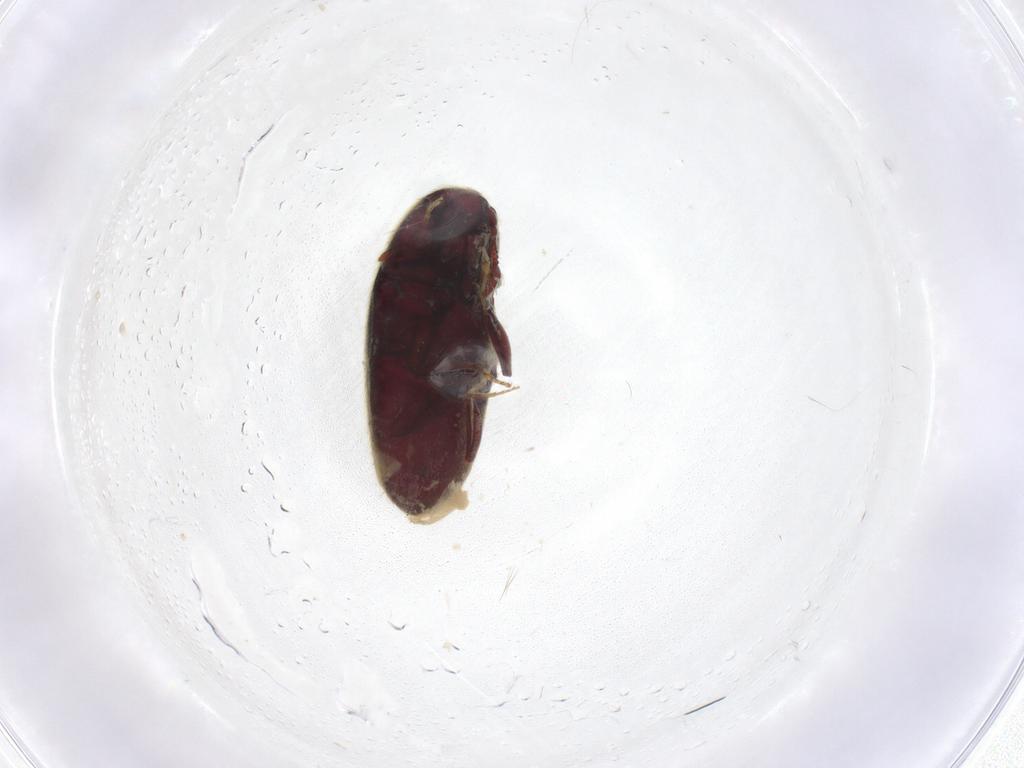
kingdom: Animalia
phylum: Arthropoda
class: Insecta
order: Coleoptera
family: Throscidae
